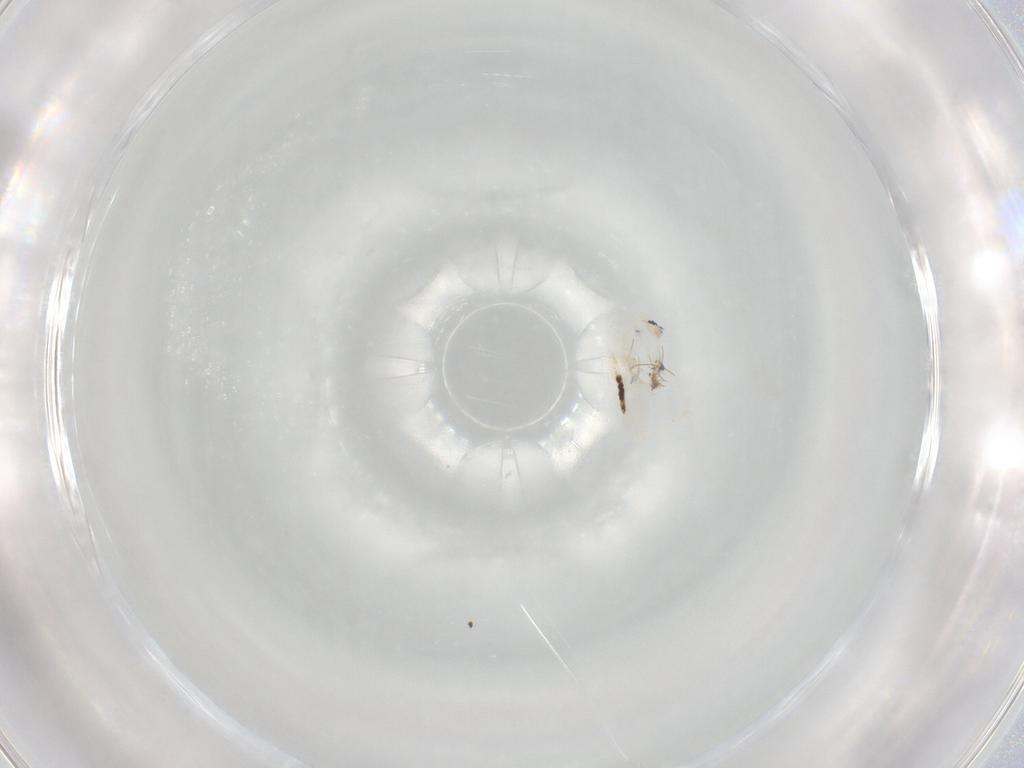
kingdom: Animalia
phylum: Arthropoda
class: Collembola
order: Entomobryomorpha
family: Entomobryidae
